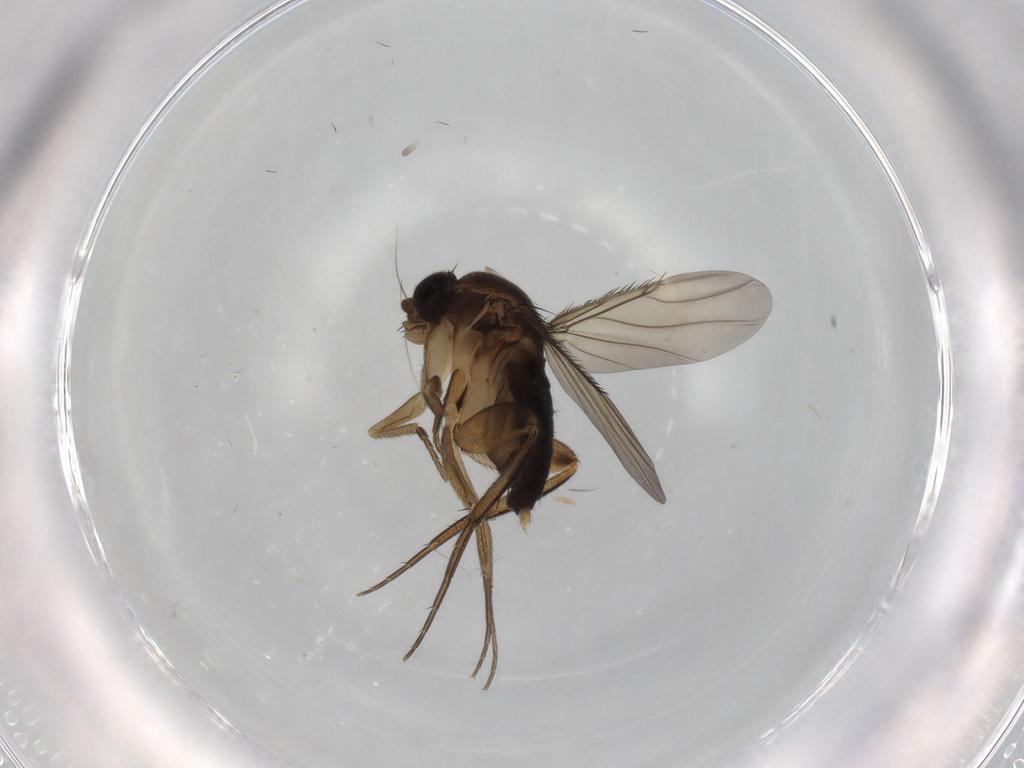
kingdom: Animalia
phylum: Arthropoda
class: Insecta
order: Diptera
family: Phoridae
